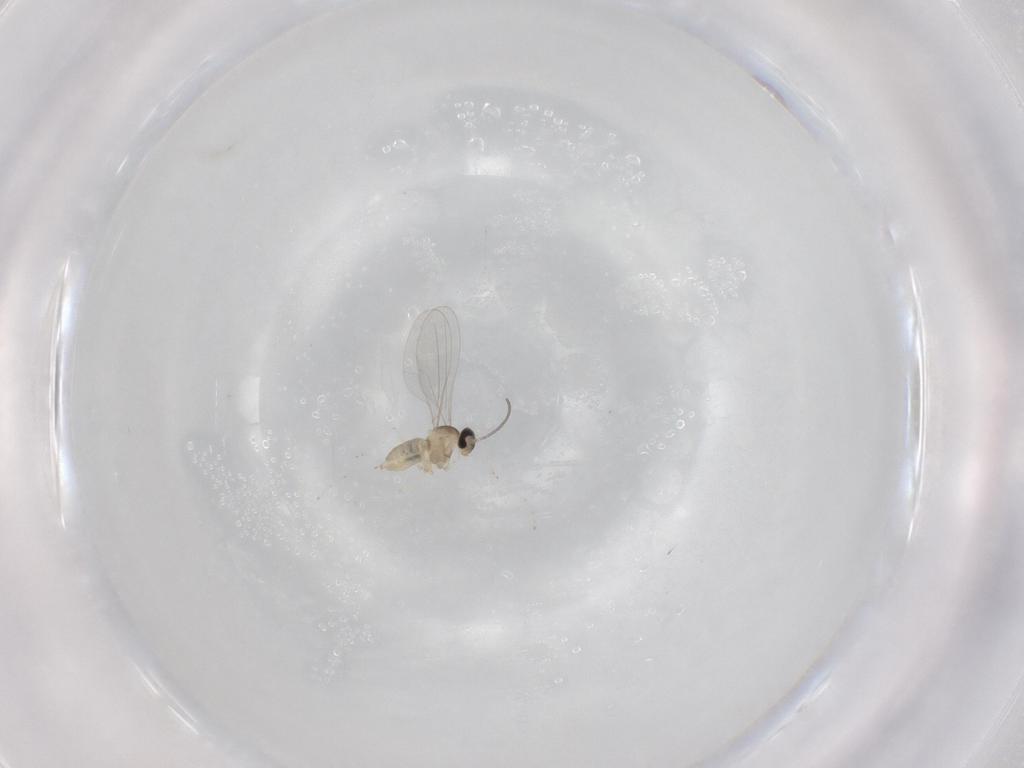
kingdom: Animalia
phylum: Arthropoda
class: Insecta
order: Diptera
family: Cecidomyiidae
